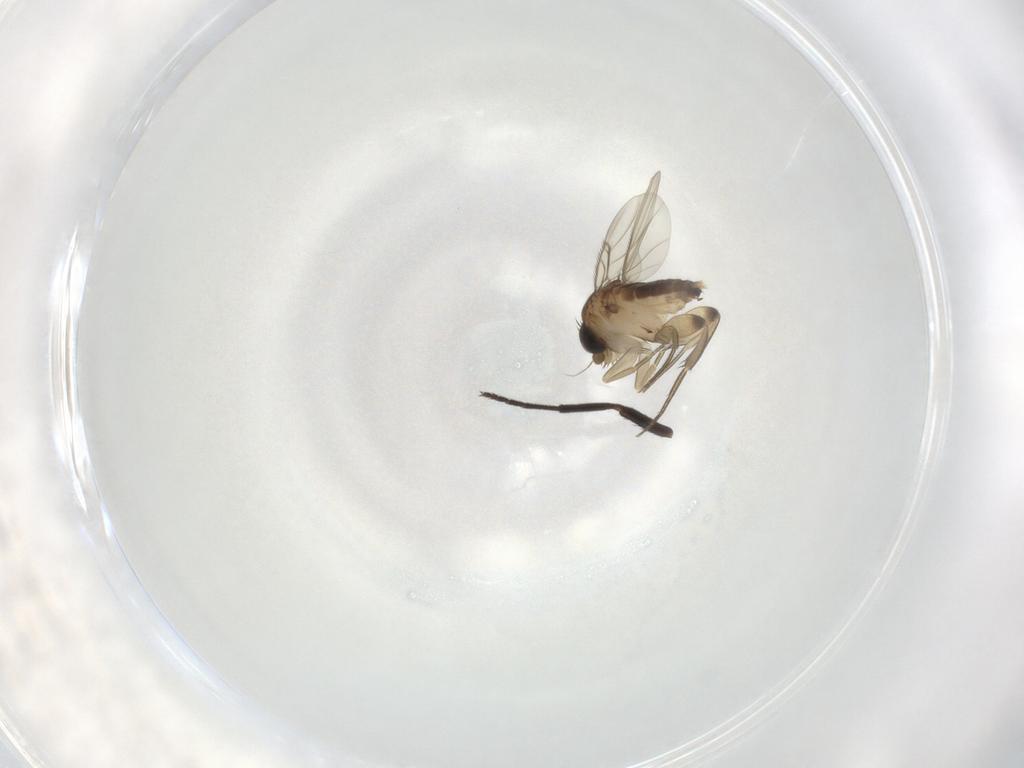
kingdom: Animalia
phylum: Arthropoda
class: Insecta
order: Diptera
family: Phoridae
